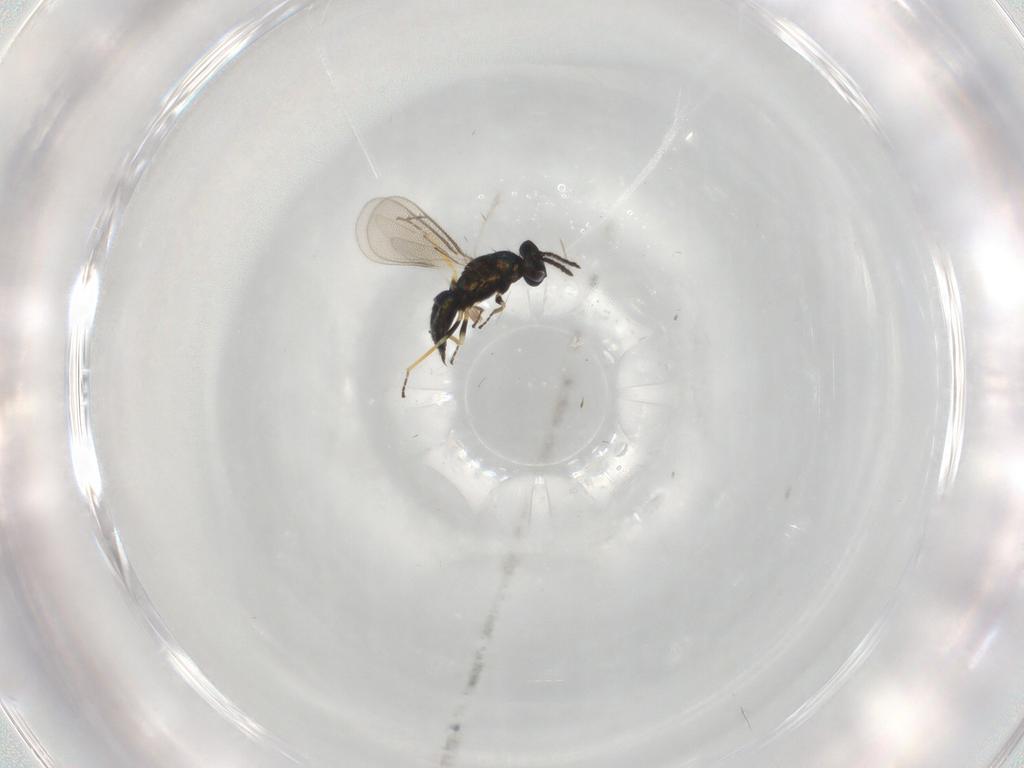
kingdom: Animalia
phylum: Arthropoda
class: Insecta
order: Hymenoptera
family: Eulophidae
